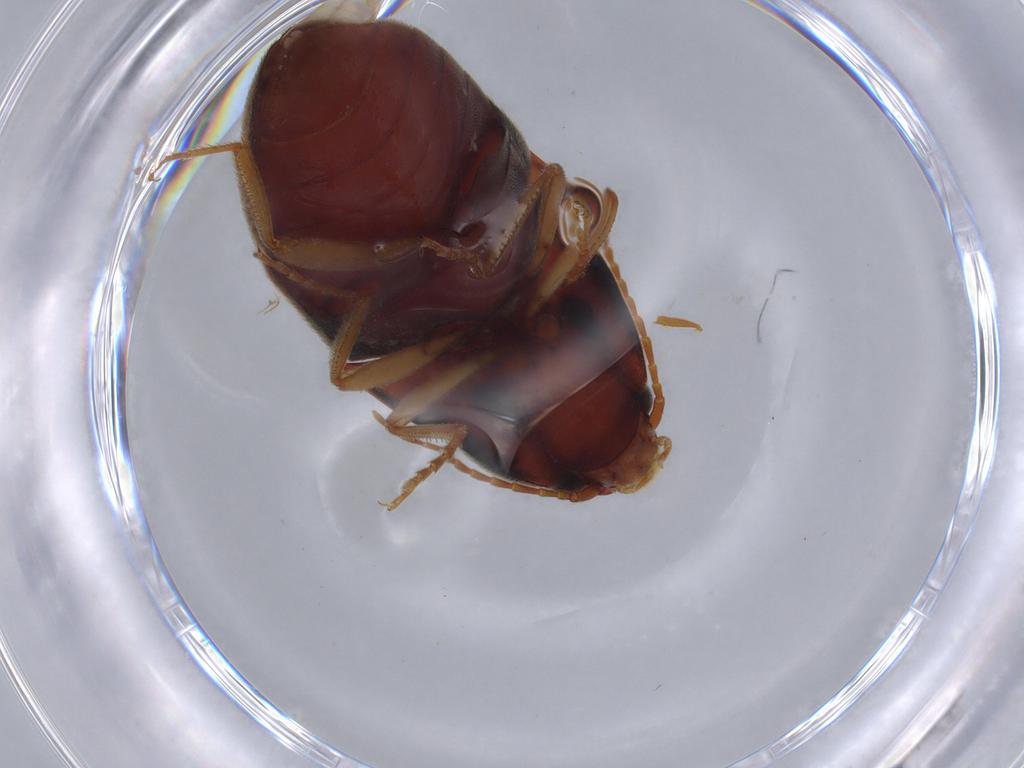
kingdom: Animalia
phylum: Arthropoda
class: Insecta
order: Coleoptera
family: Elateridae
